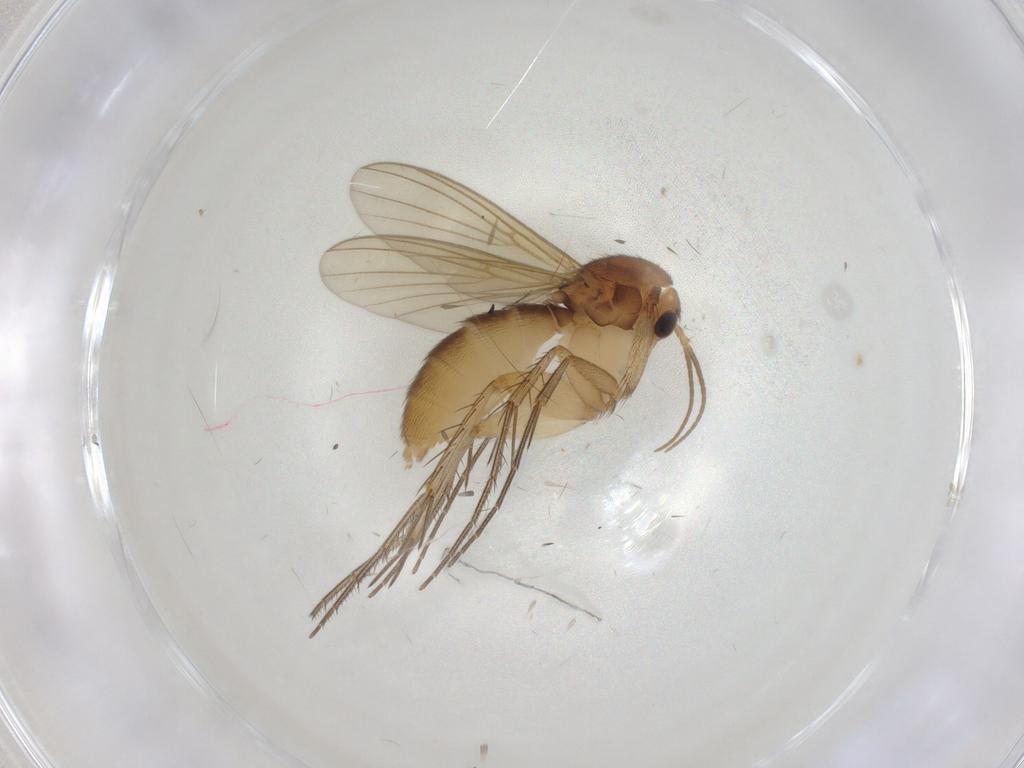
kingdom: Animalia
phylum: Arthropoda
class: Insecta
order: Diptera
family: Mycetophilidae
